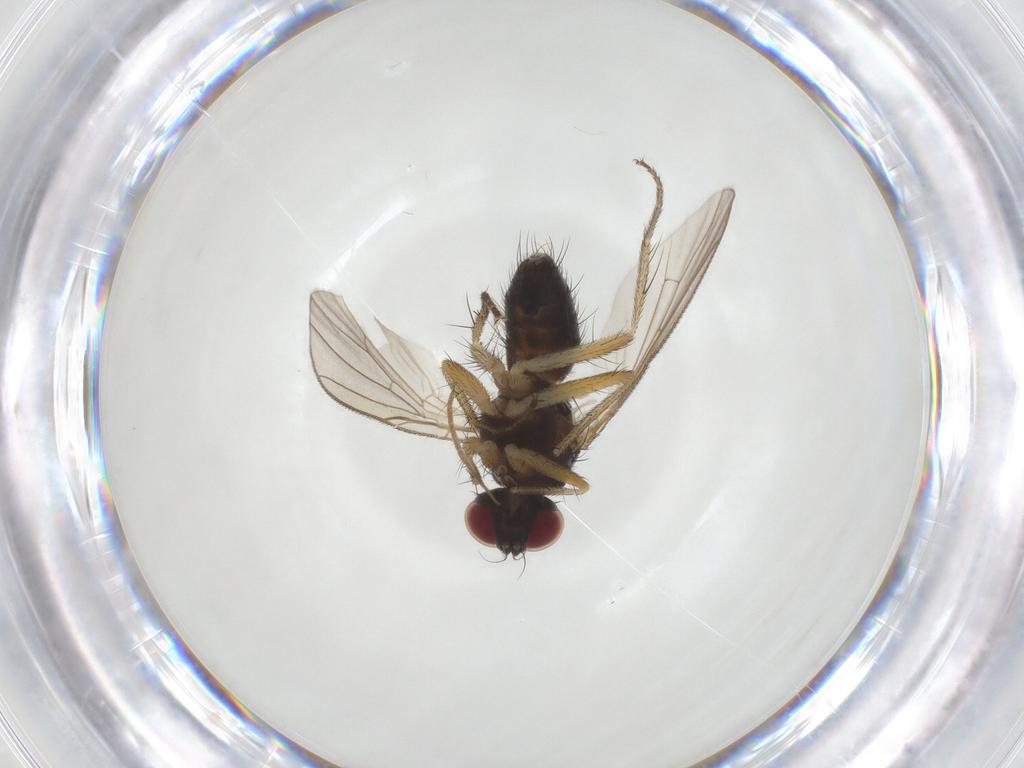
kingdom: Animalia
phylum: Arthropoda
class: Insecta
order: Diptera
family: Muscidae
